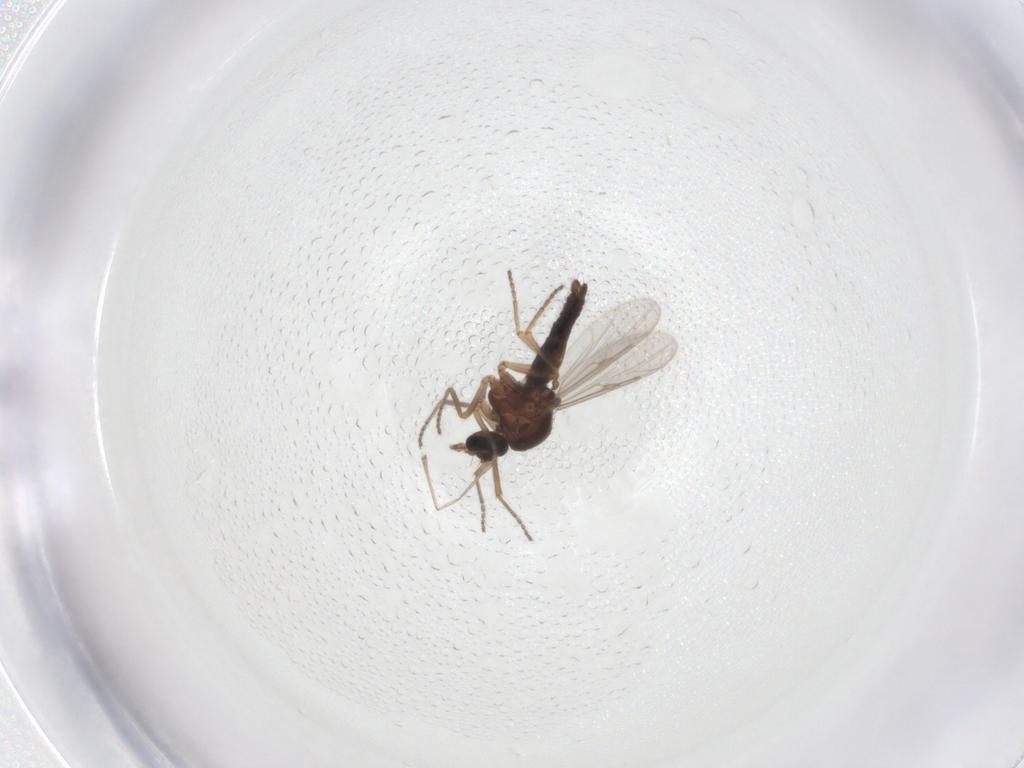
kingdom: Animalia
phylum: Arthropoda
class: Insecta
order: Diptera
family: Ceratopogonidae
